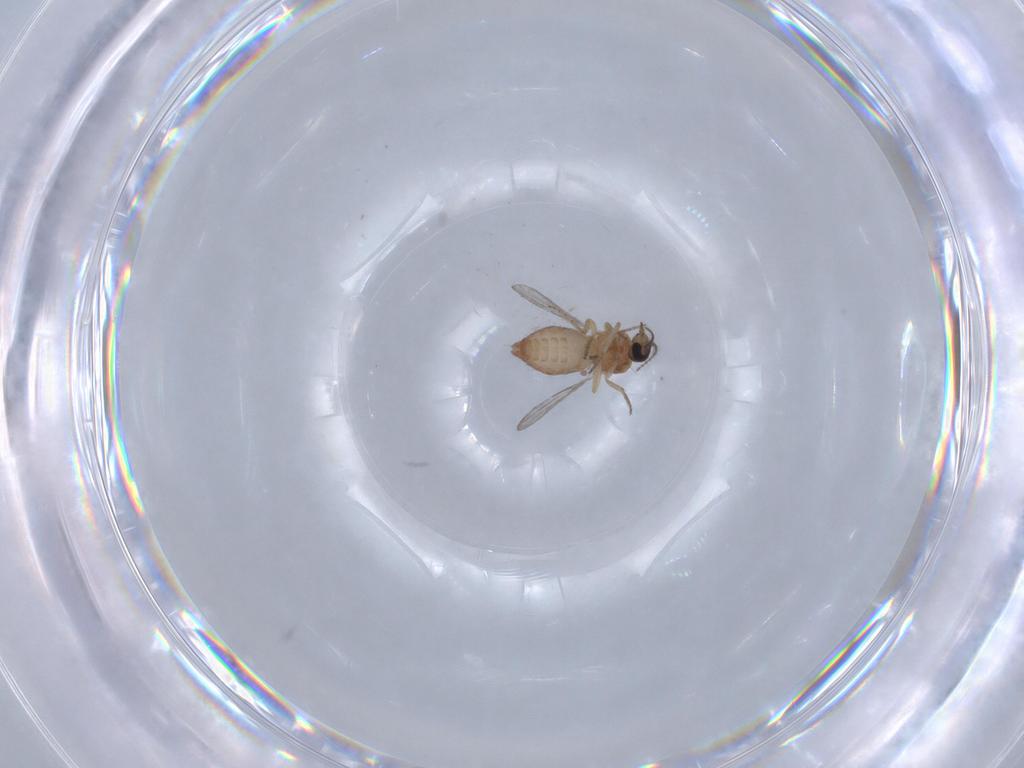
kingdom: Animalia
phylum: Arthropoda
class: Insecta
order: Diptera
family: Ceratopogonidae
